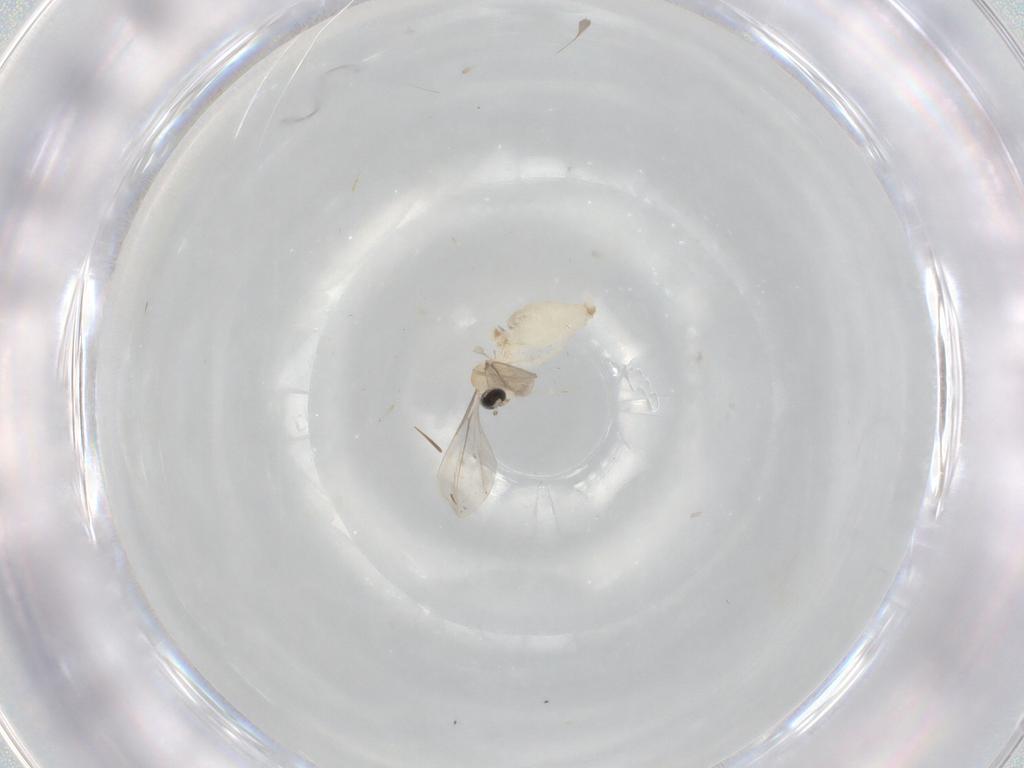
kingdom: Animalia
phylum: Arthropoda
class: Insecta
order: Diptera
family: Cecidomyiidae
